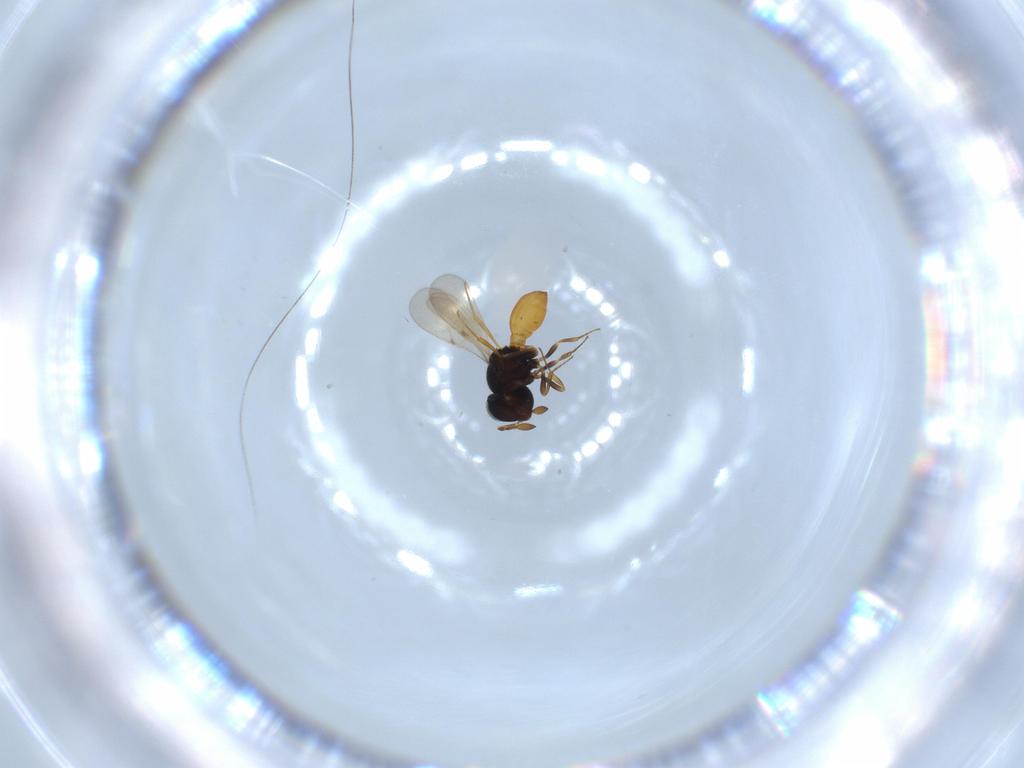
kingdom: Animalia
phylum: Arthropoda
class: Insecta
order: Hymenoptera
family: Scelionidae
